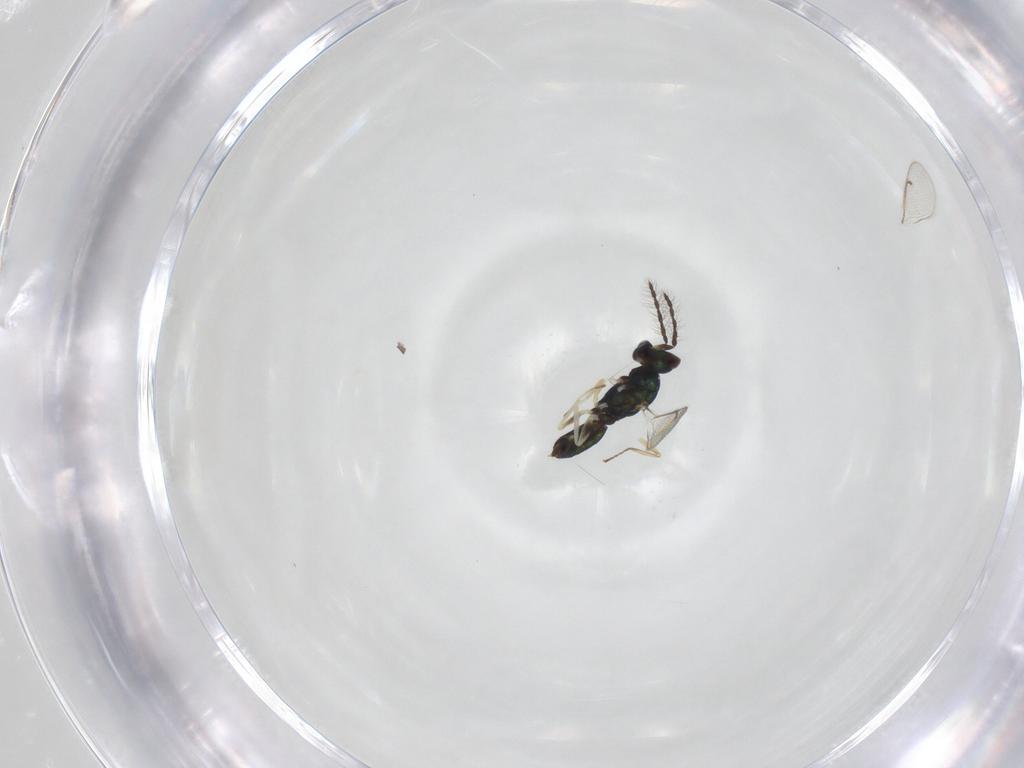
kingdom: Animalia
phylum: Arthropoda
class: Insecta
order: Hymenoptera
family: Eulophidae
